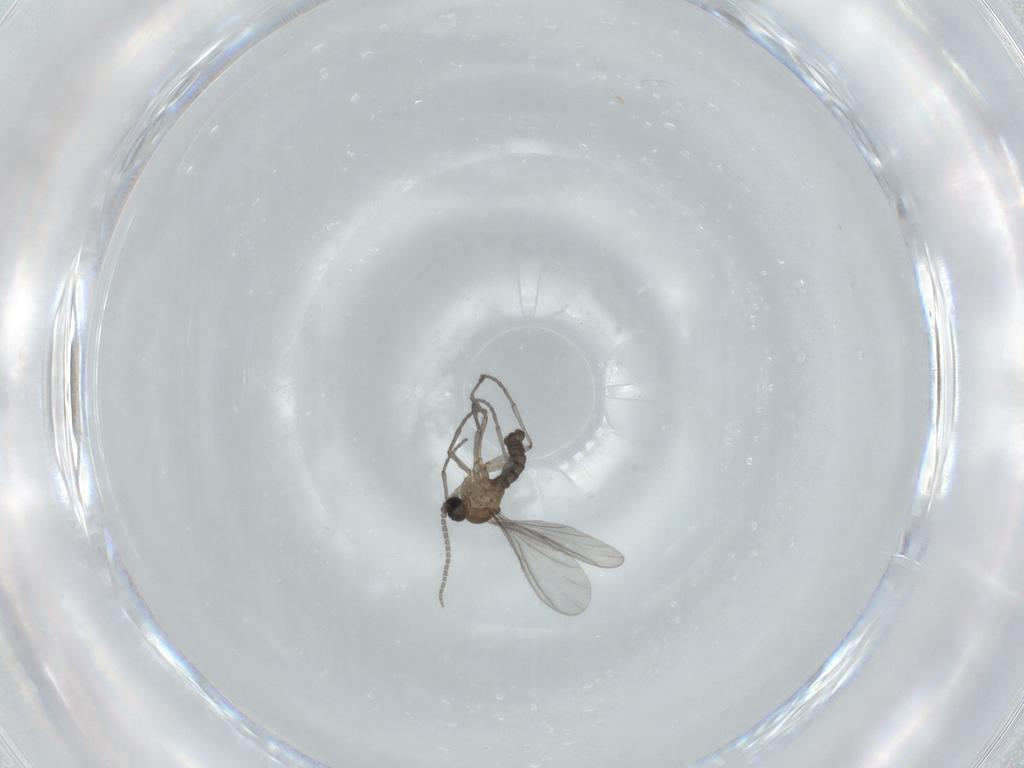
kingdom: Animalia
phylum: Arthropoda
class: Insecta
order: Diptera
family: Sciaridae
